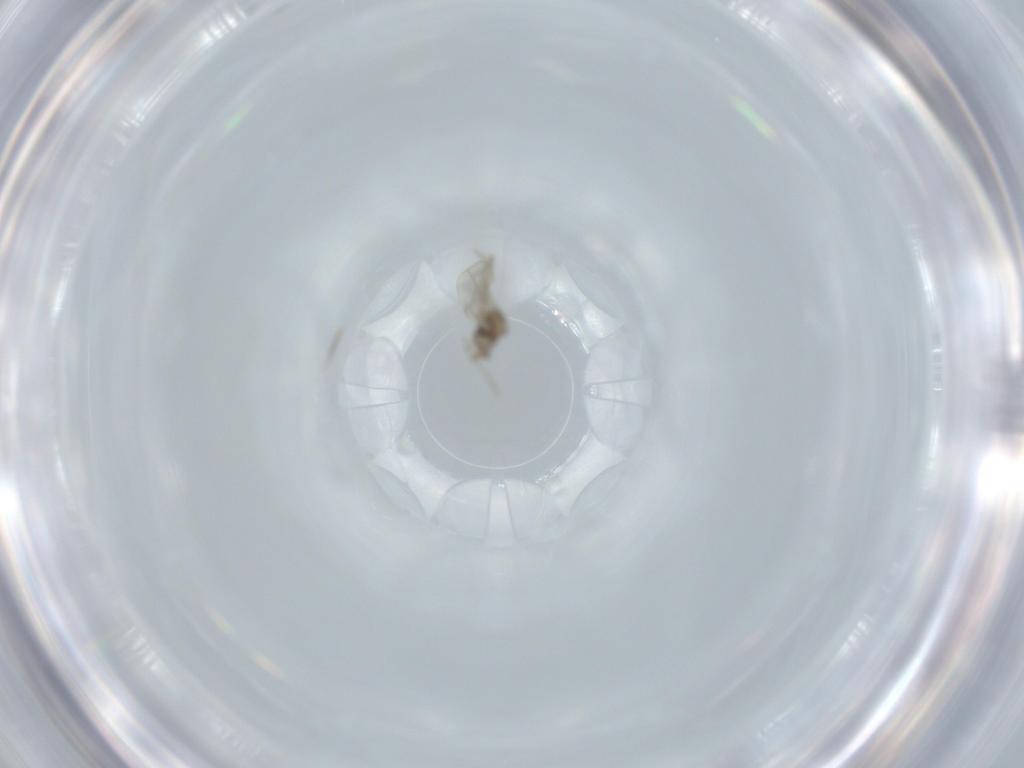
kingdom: Animalia
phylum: Arthropoda
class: Insecta
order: Diptera
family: Cecidomyiidae
